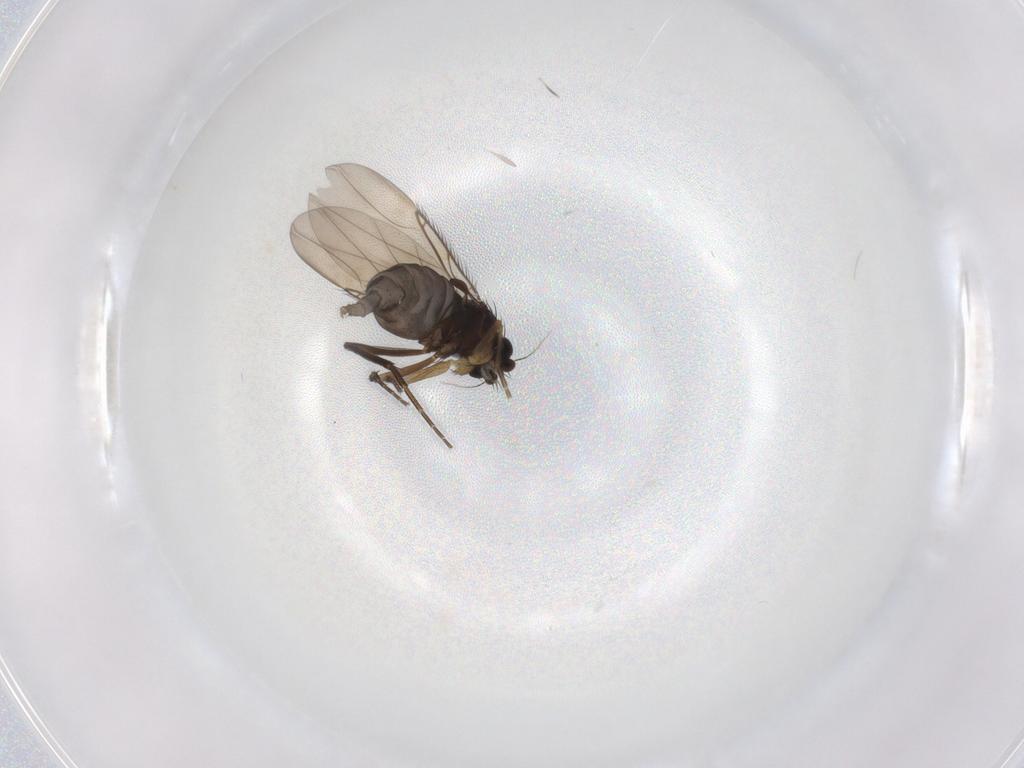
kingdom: Animalia
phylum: Arthropoda
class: Insecta
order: Diptera
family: Phoridae
